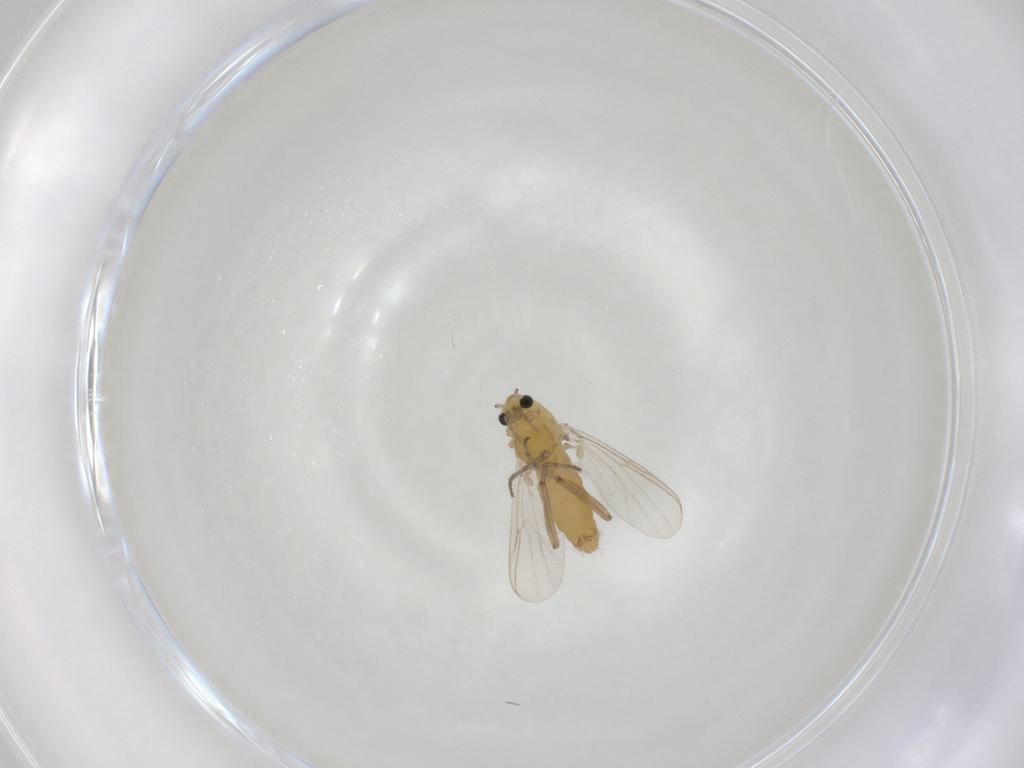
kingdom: Animalia
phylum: Arthropoda
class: Insecta
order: Diptera
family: Chironomidae
